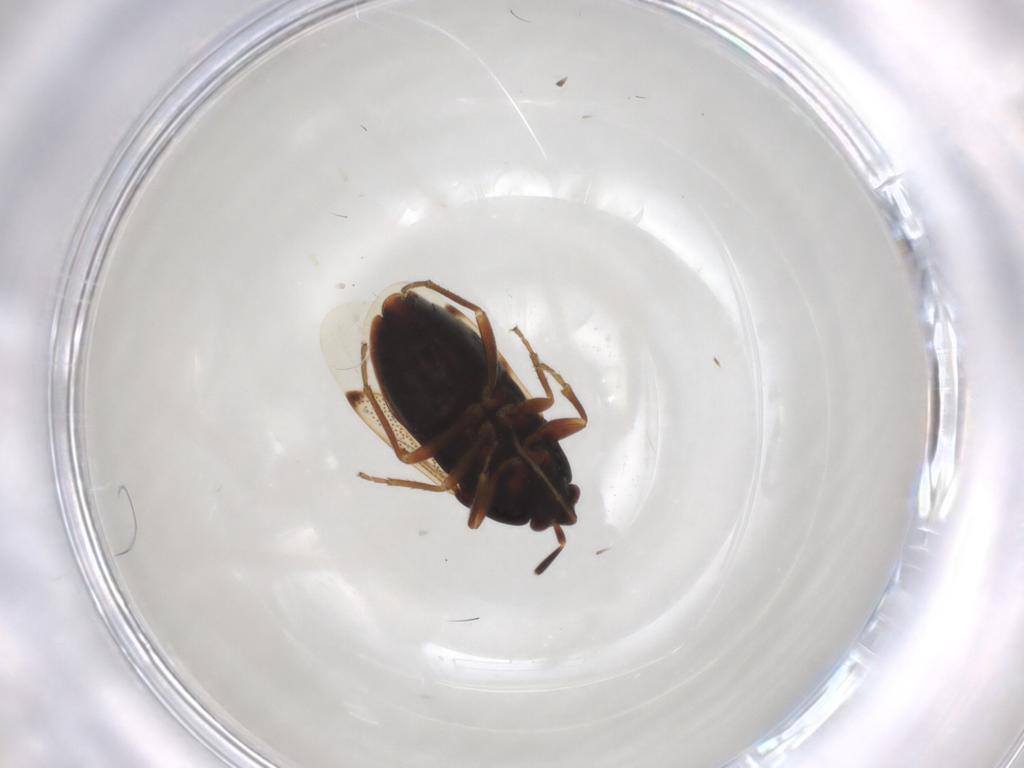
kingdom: Animalia
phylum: Arthropoda
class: Insecta
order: Hemiptera
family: Rhyparochromidae
